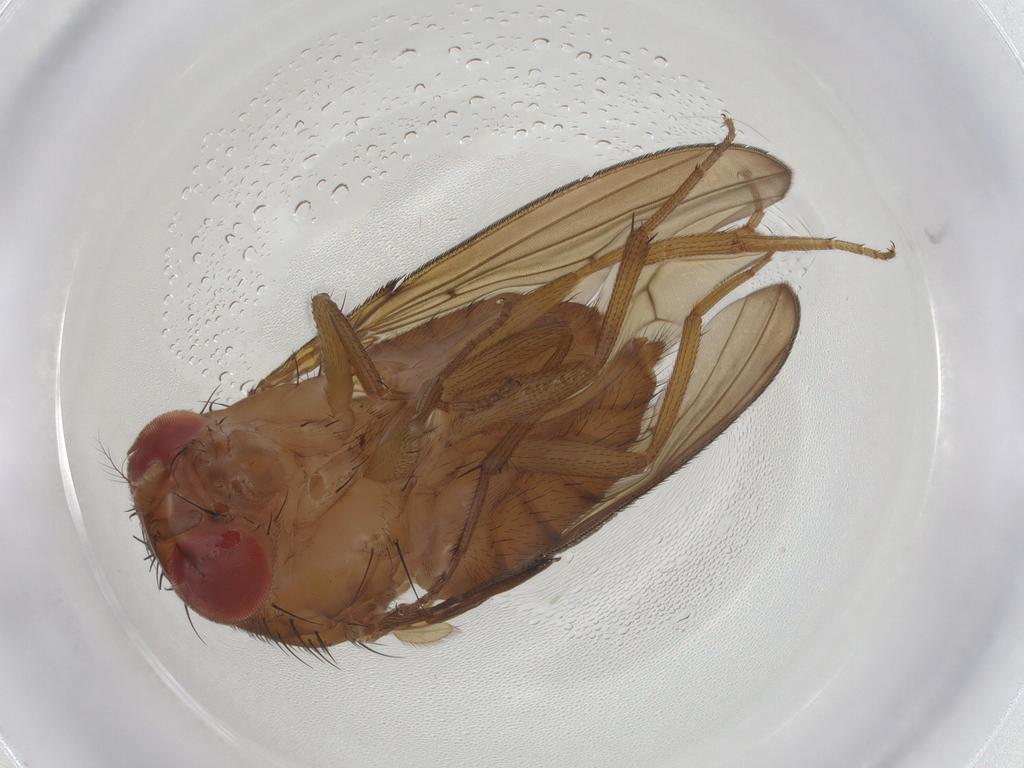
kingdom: Animalia
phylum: Arthropoda
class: Insecta
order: Diptera
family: Drosophilidae
